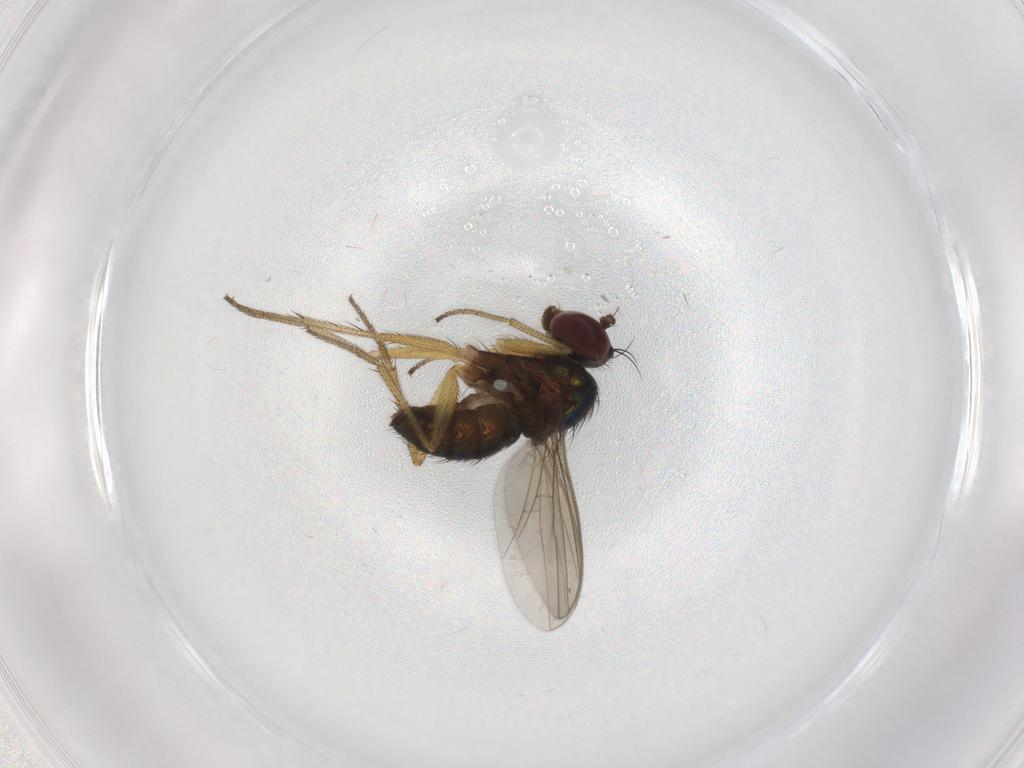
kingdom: Animalia
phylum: Arthropoda
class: Insecta
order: Diptera
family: Dolichopodidae
